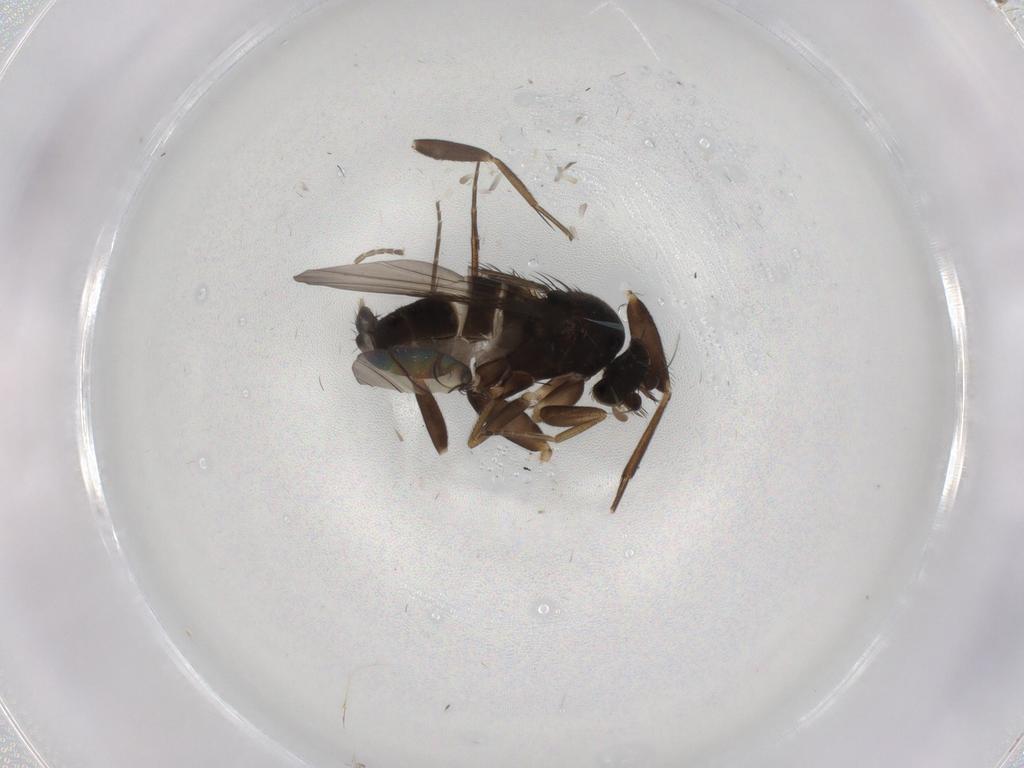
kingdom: Animalia
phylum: Arthropoda
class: Insecta
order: Diptera
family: Phoridae
